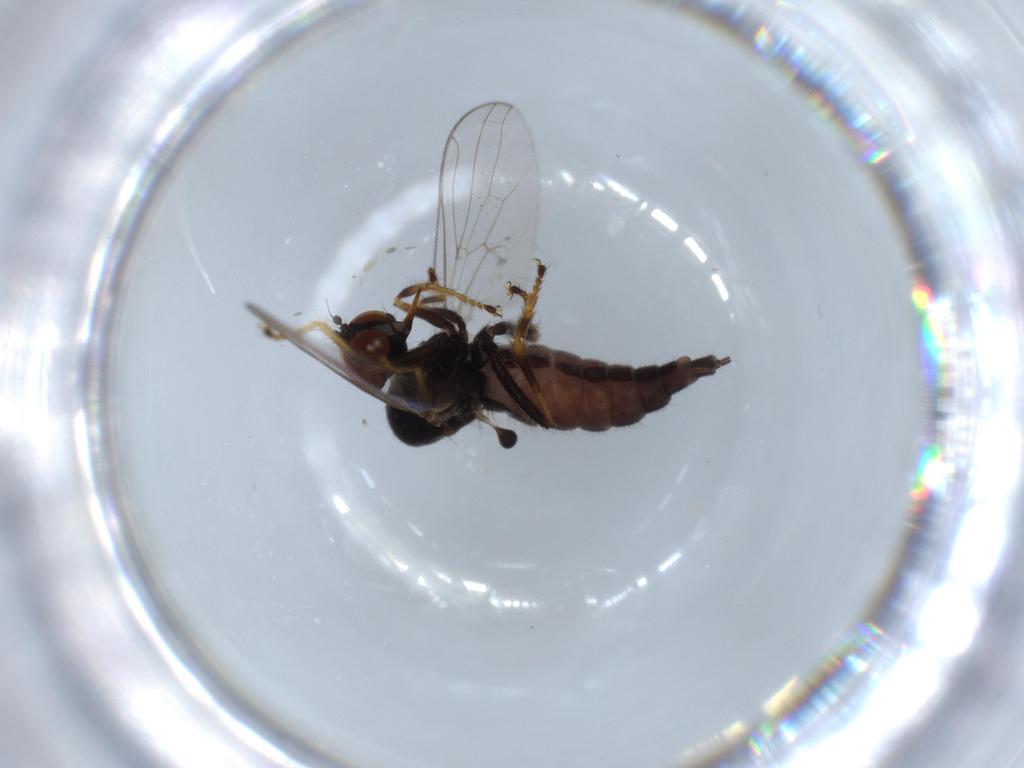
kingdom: Animalia
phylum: Arthropoda
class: Insecta
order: Diptera
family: Hybotidae
